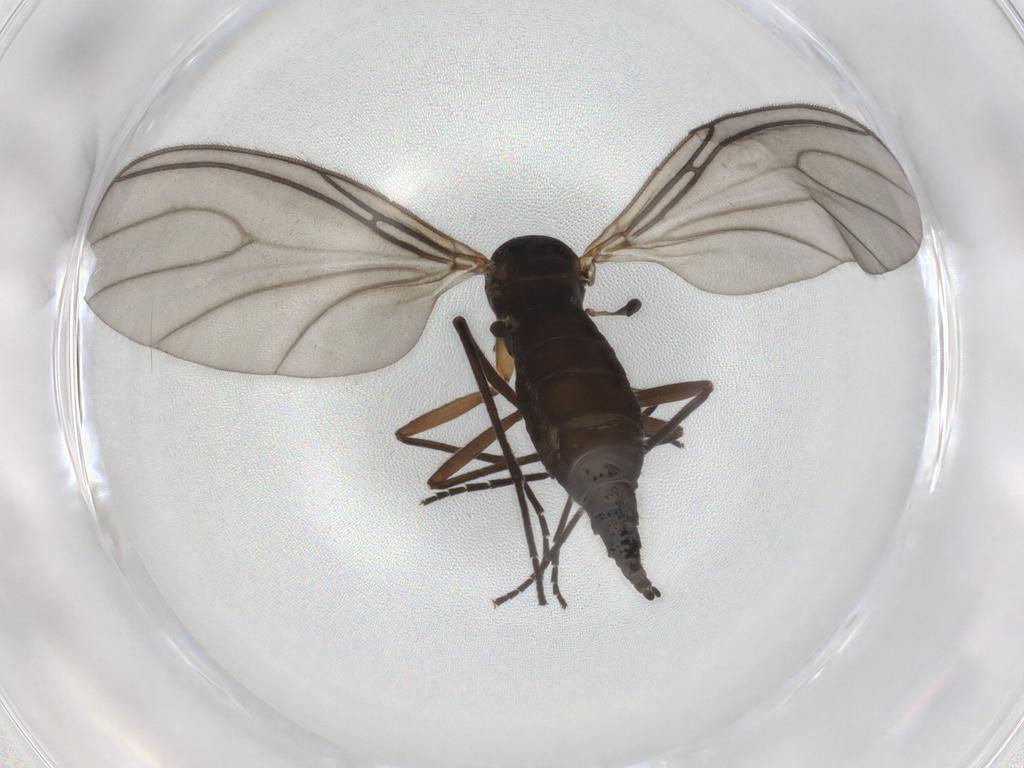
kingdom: Animalia
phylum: Arthropoda
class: Insecta
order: Diptera
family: Sciaridae
